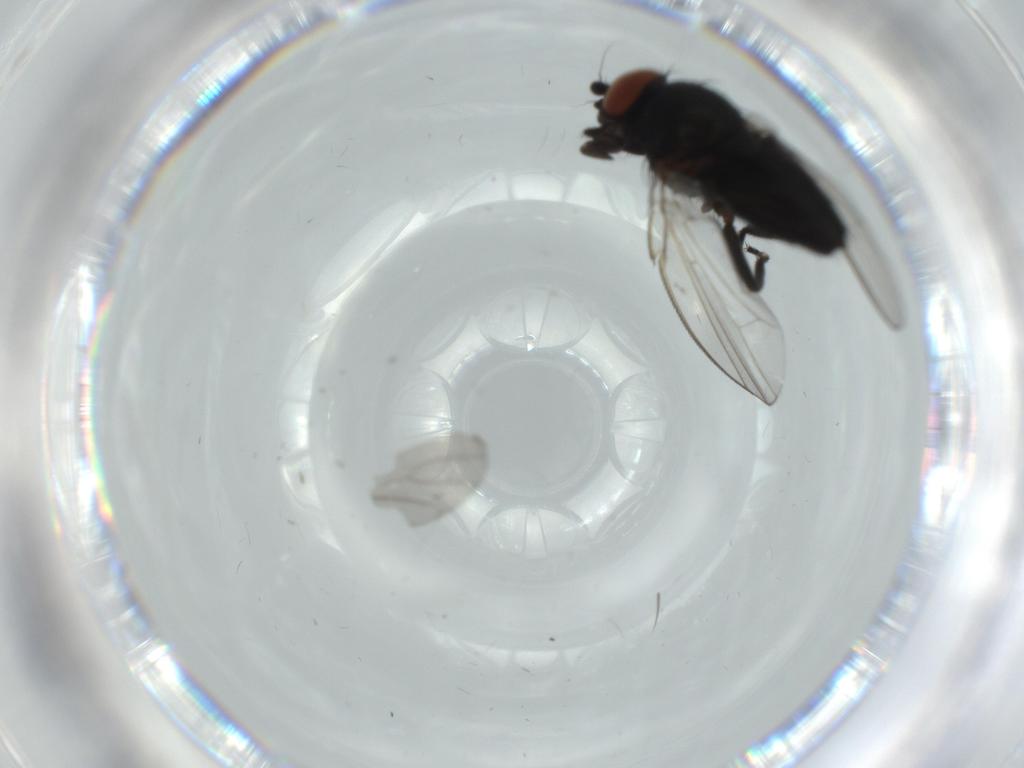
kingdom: Animalia
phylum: Arthropoda
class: Insecta
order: Diptera
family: Milichiidae
